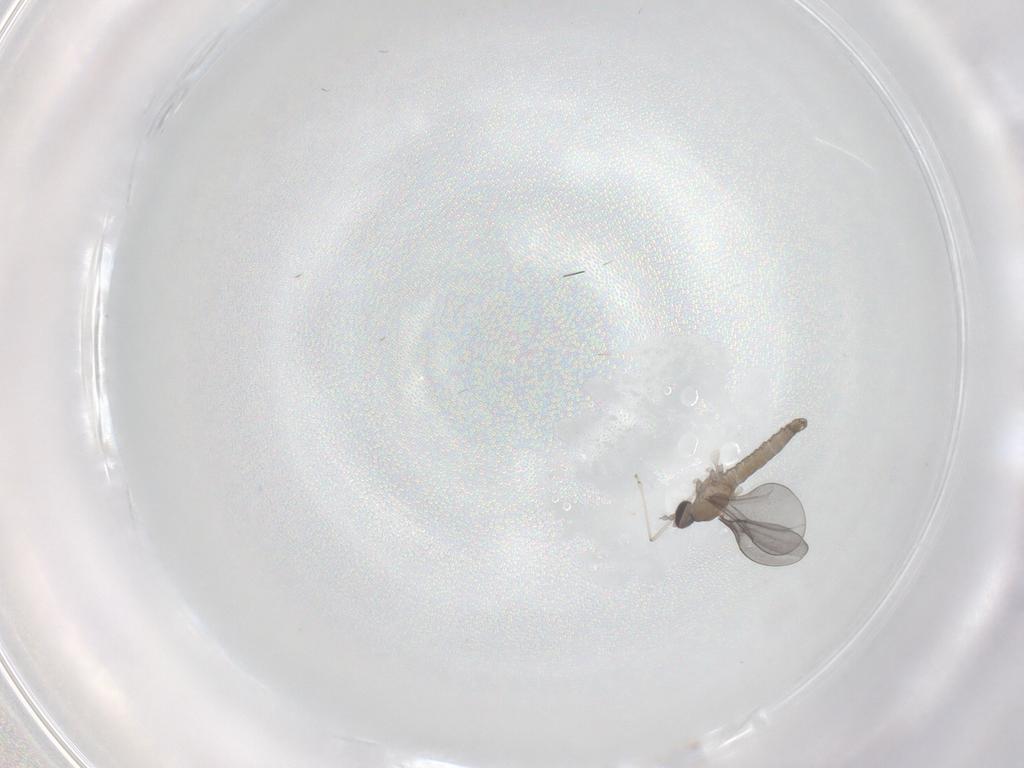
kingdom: Animalia
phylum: Arthropoda
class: Insecta
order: Diptera
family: Cecidomyiidae
